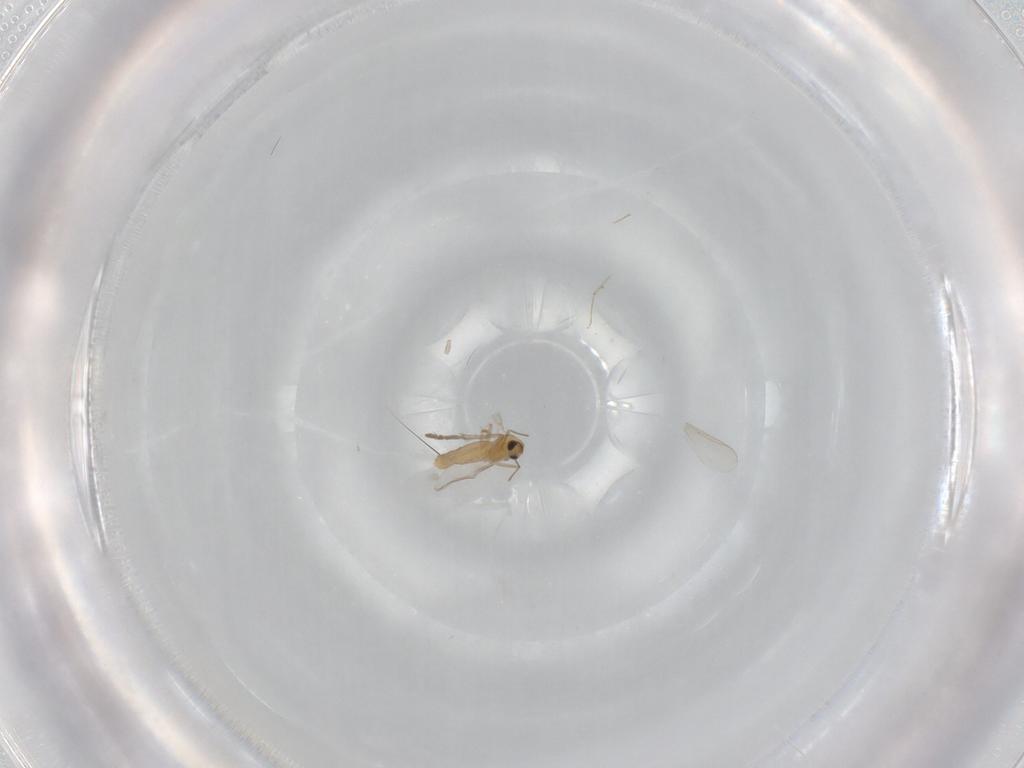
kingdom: Animalia
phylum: Arthropoda
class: Insecta
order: Diptera
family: Chironomidae
